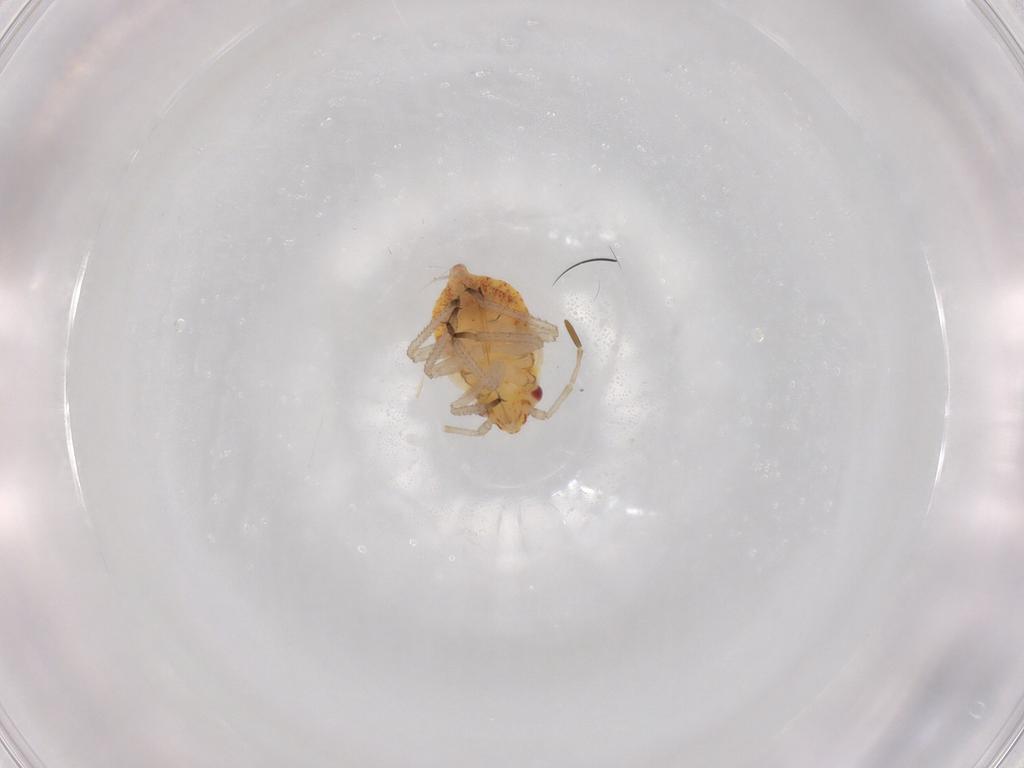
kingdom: Animalia
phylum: Arthropoda
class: Insecta
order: Hemiptera
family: Miridae
